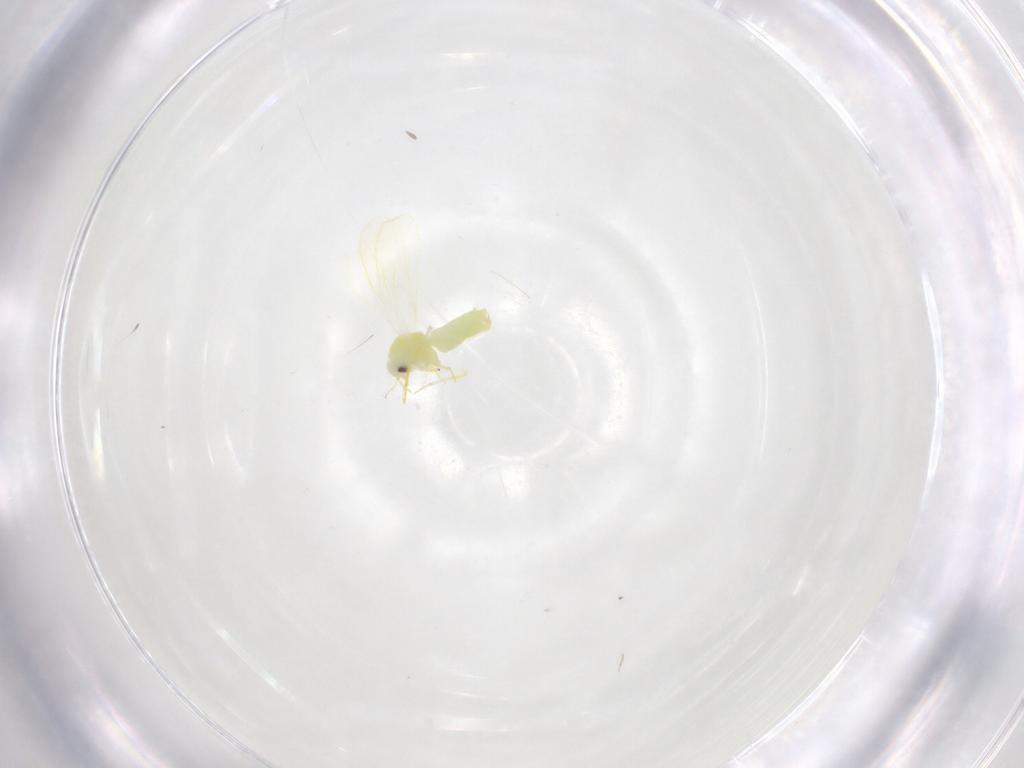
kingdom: Animalia
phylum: Arthropoda
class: Insecta
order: Hemiptera
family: Aleyrodidae
